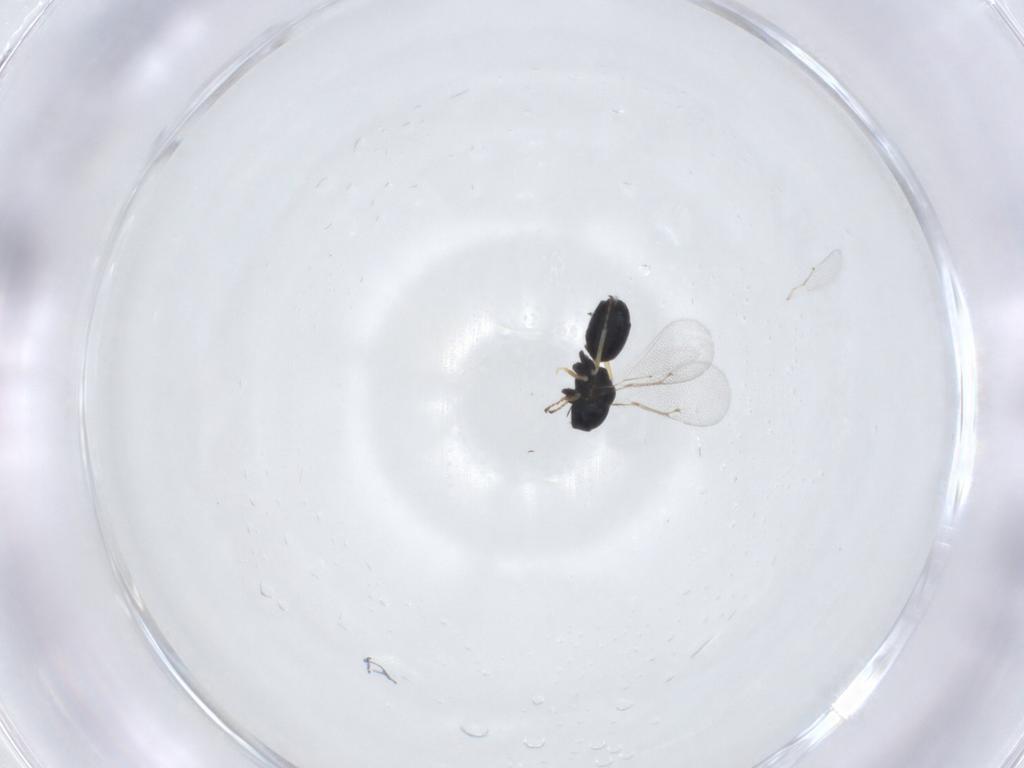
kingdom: Animalia
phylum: Arthropoda
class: Insecta
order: Hymenoptera
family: Eulophidae
